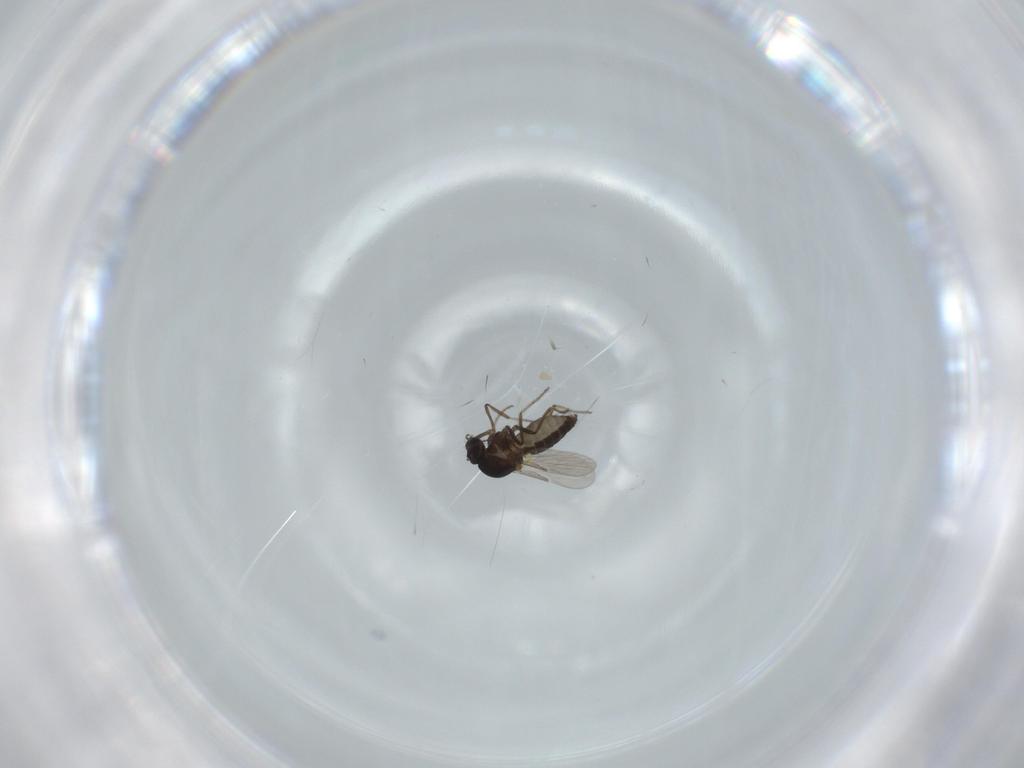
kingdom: Animalia
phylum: Arthropoda
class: Insecta
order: Diptera
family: Ceratopogonidae
